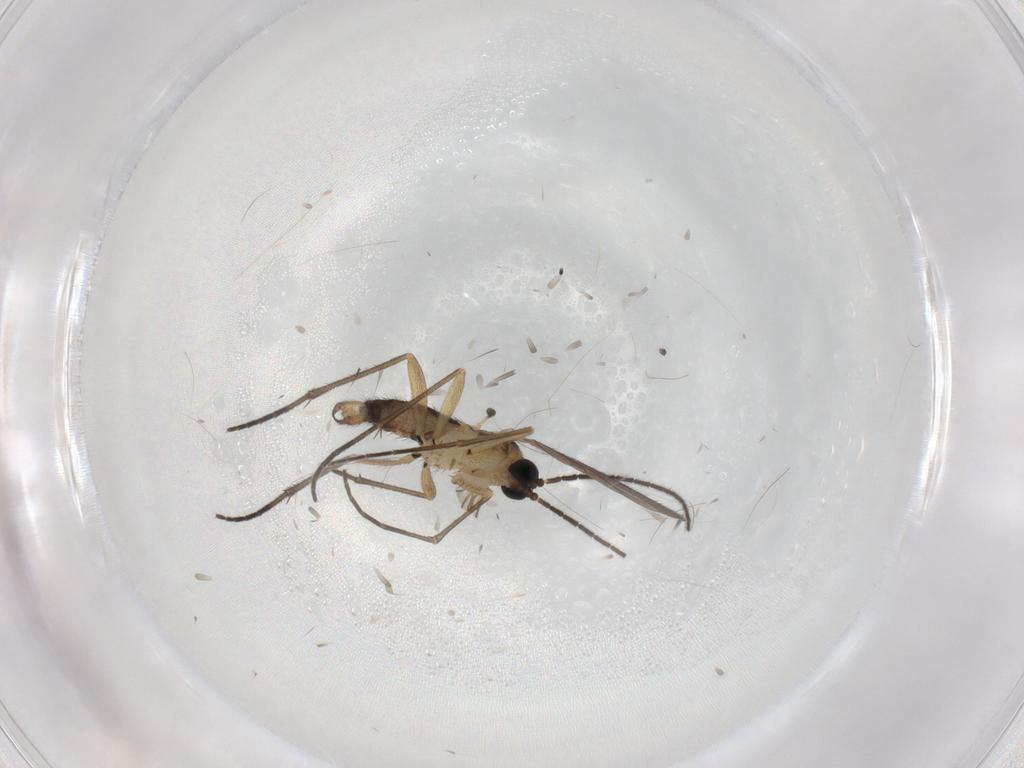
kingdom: Animalia
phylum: Arthropoda
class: Insecta
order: Diptera
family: Sciaridae
